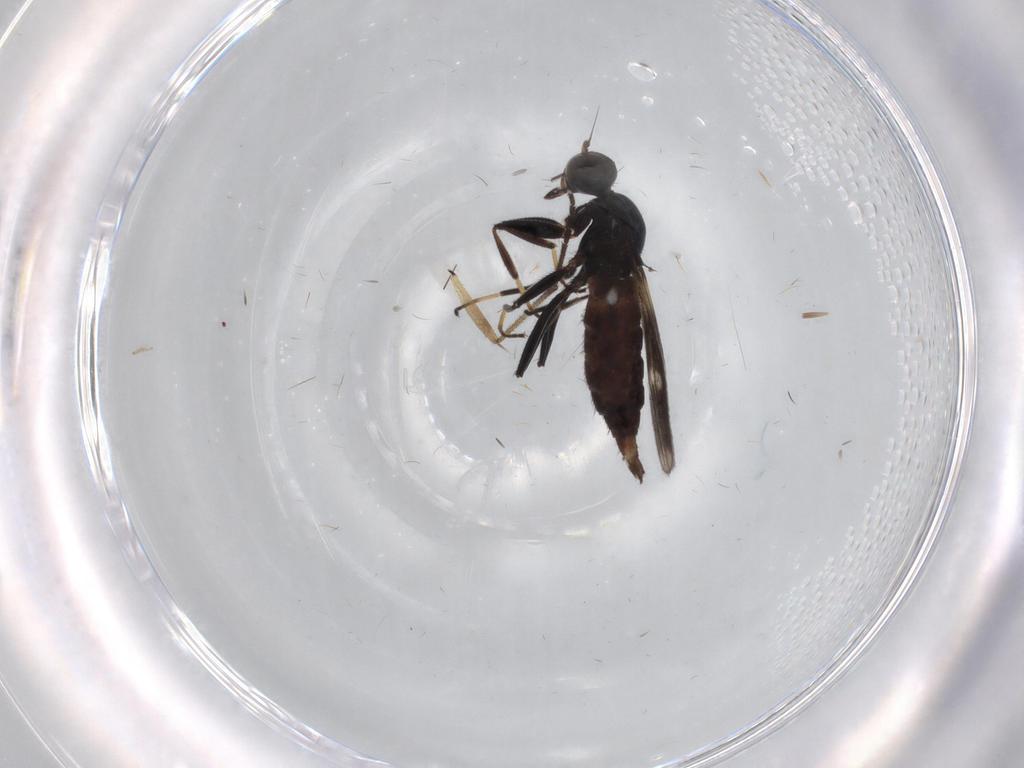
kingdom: Animalia
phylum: Arthropoda
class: Insecta
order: Diptera
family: Hybotidae
